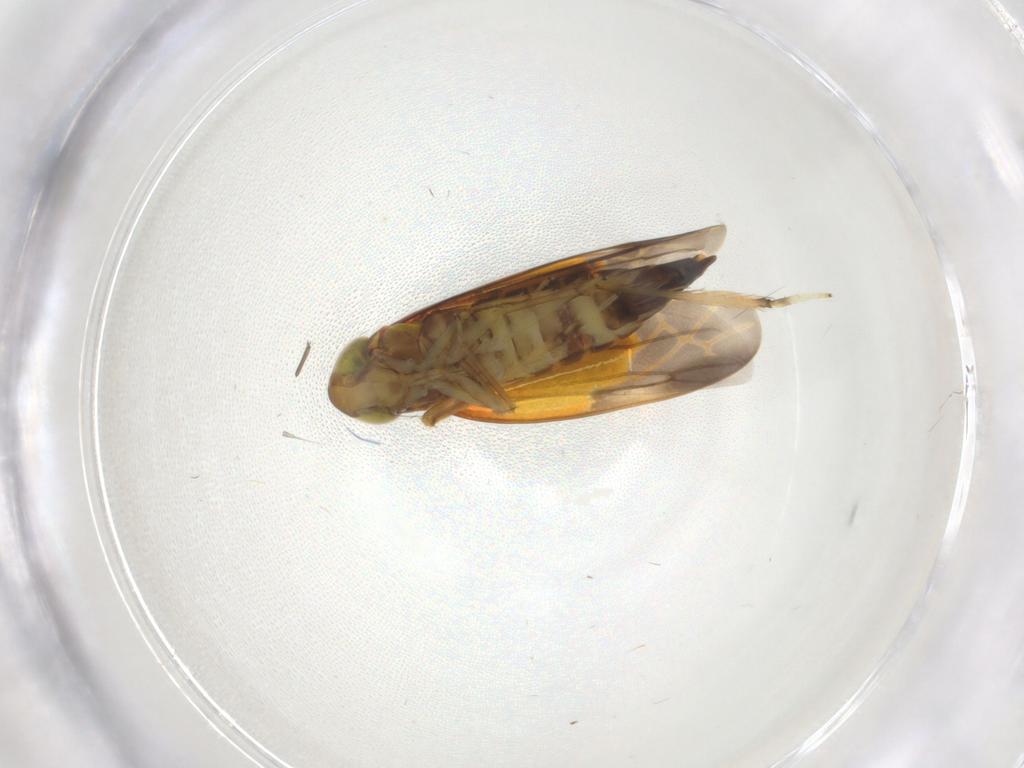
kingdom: Animalia
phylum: Arthropoda
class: Insecta
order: Hemiptera
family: Cicadellidae
